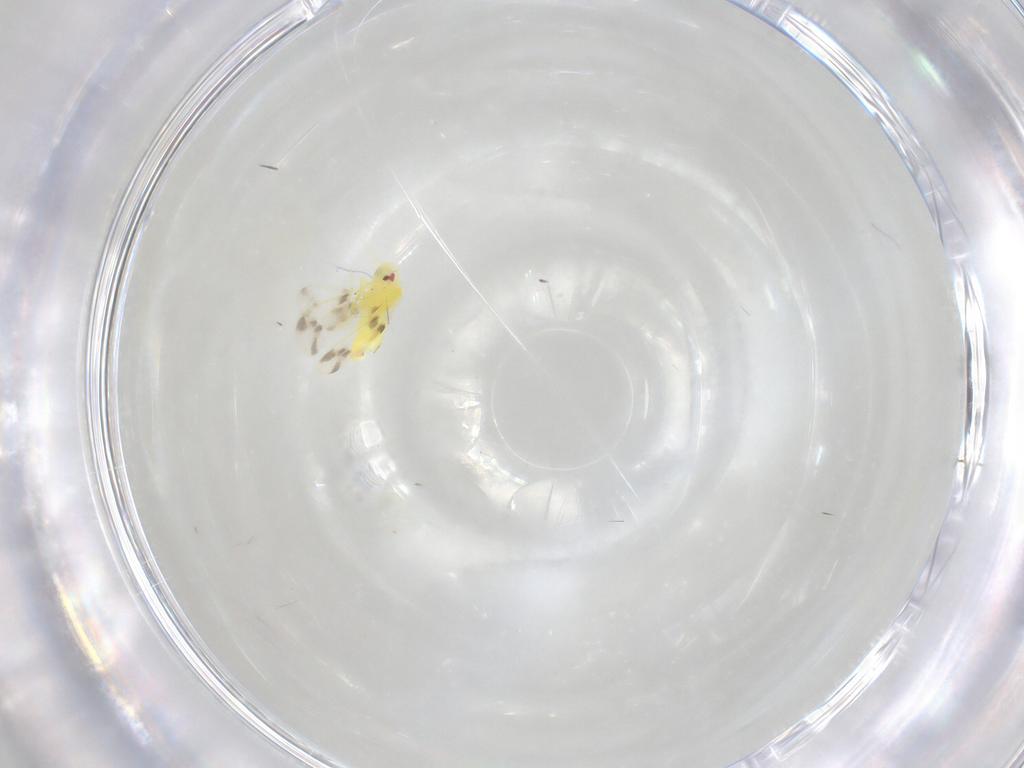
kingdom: Animalia
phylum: Arthropoda
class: Insecta
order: Hemiptera
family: Aleyrodidae
